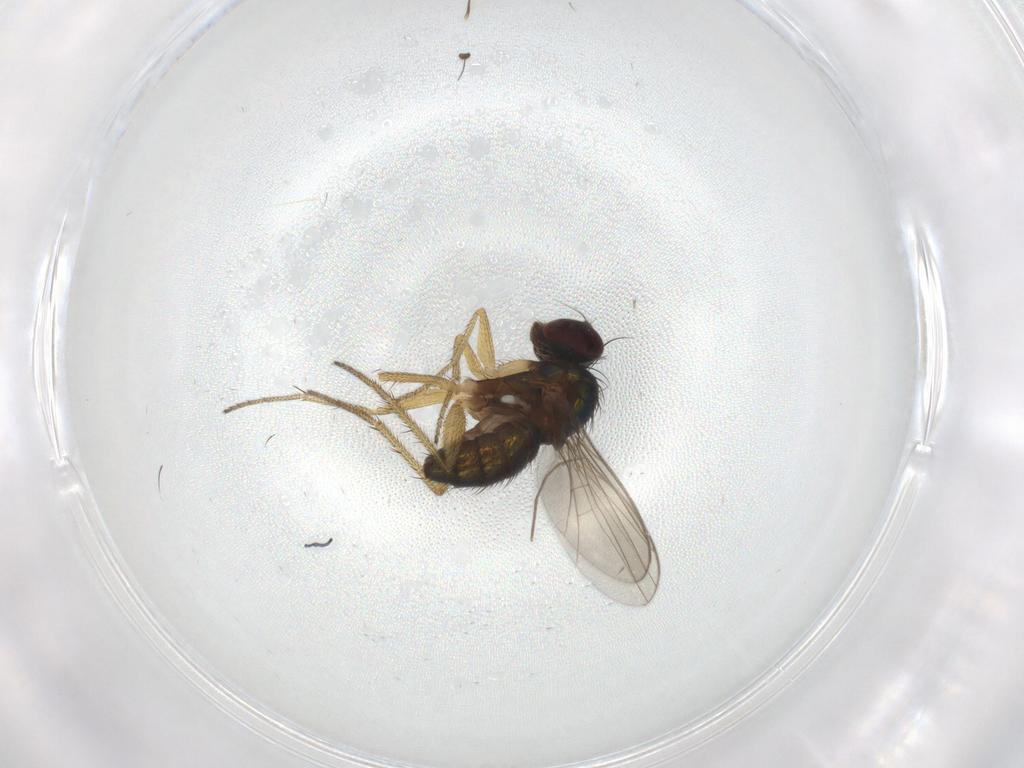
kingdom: Animalia
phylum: Arthropoda
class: Insecta
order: Diptera
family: Dolichopodidae
